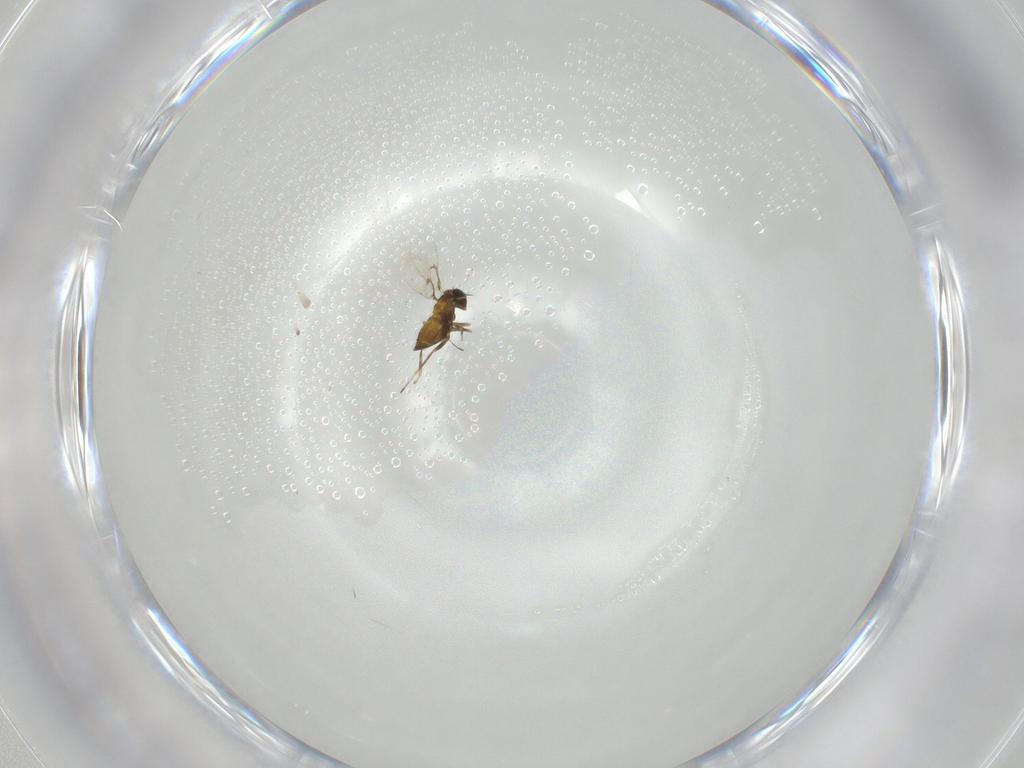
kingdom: Animalia
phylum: Arthropoda
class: Insecta
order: Hymenoptera
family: Trichogrammatidae
